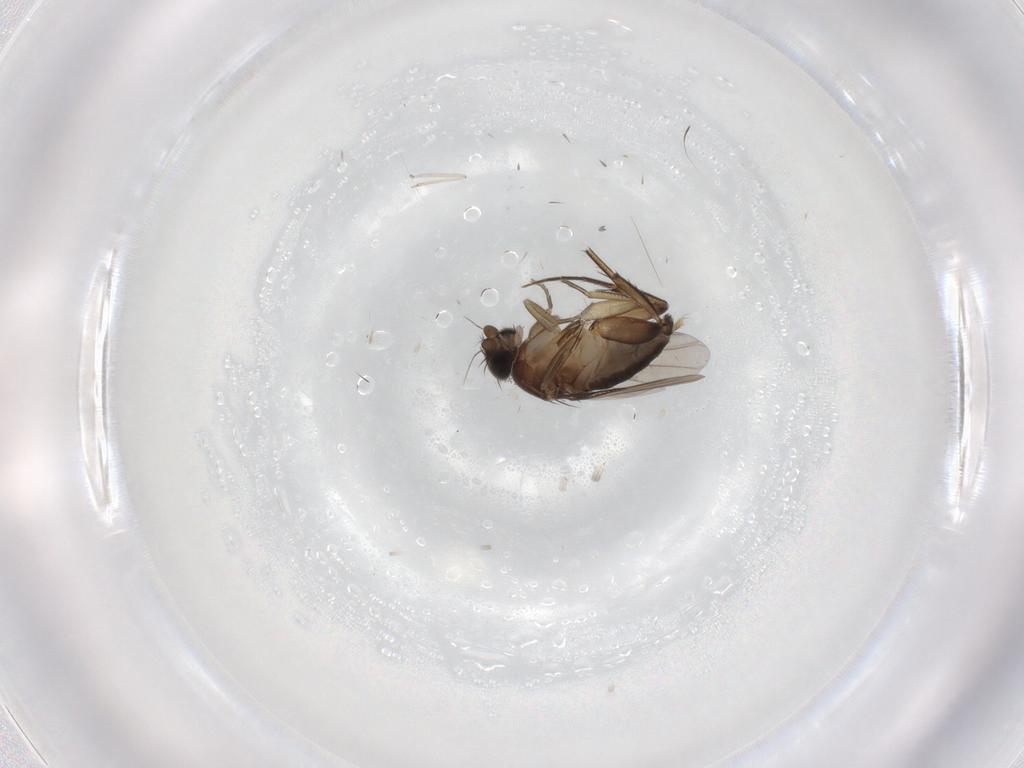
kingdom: Animalia
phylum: Arthropoda
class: Insecta
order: Diptera
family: Phoridae
